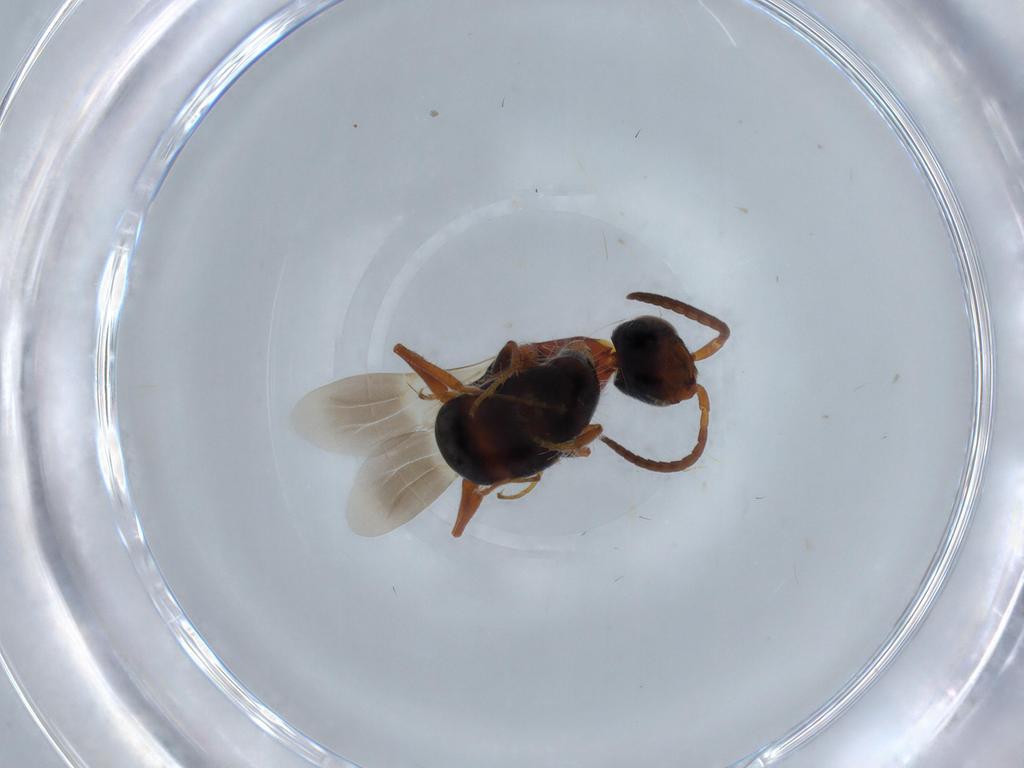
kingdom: Animalia
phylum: Arthropoda
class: Insecta
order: Hymenoptera
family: Bethylidae
